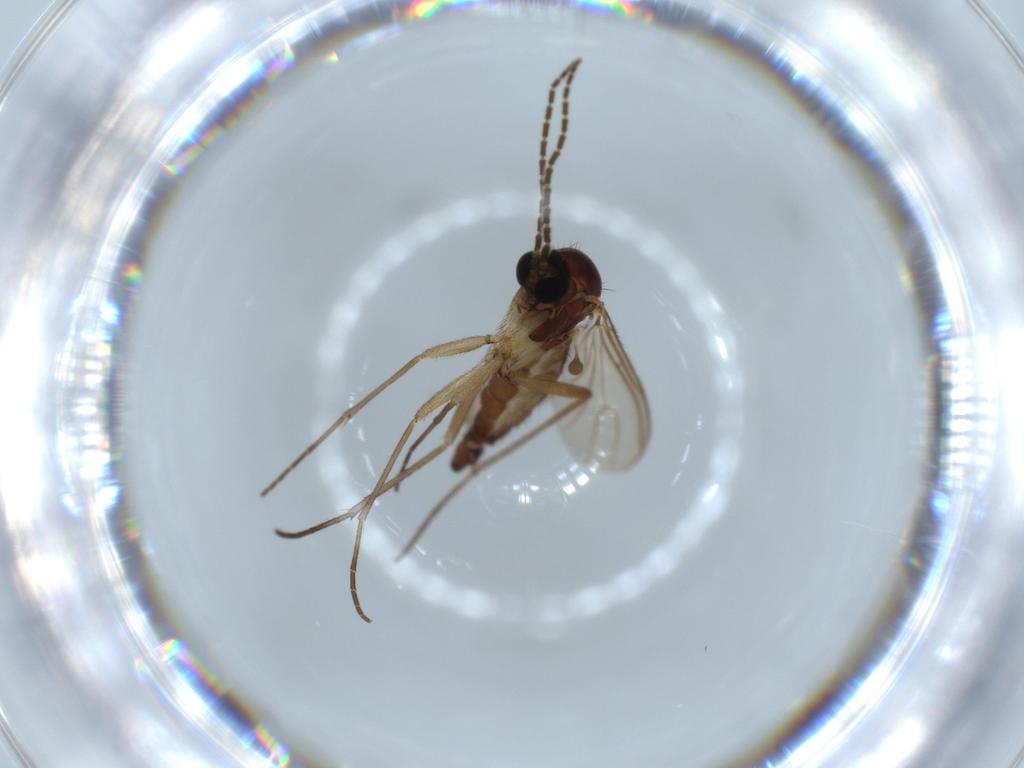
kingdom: Animalia
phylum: Arthropoda
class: Insecta
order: Diptera
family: Sciaridae
